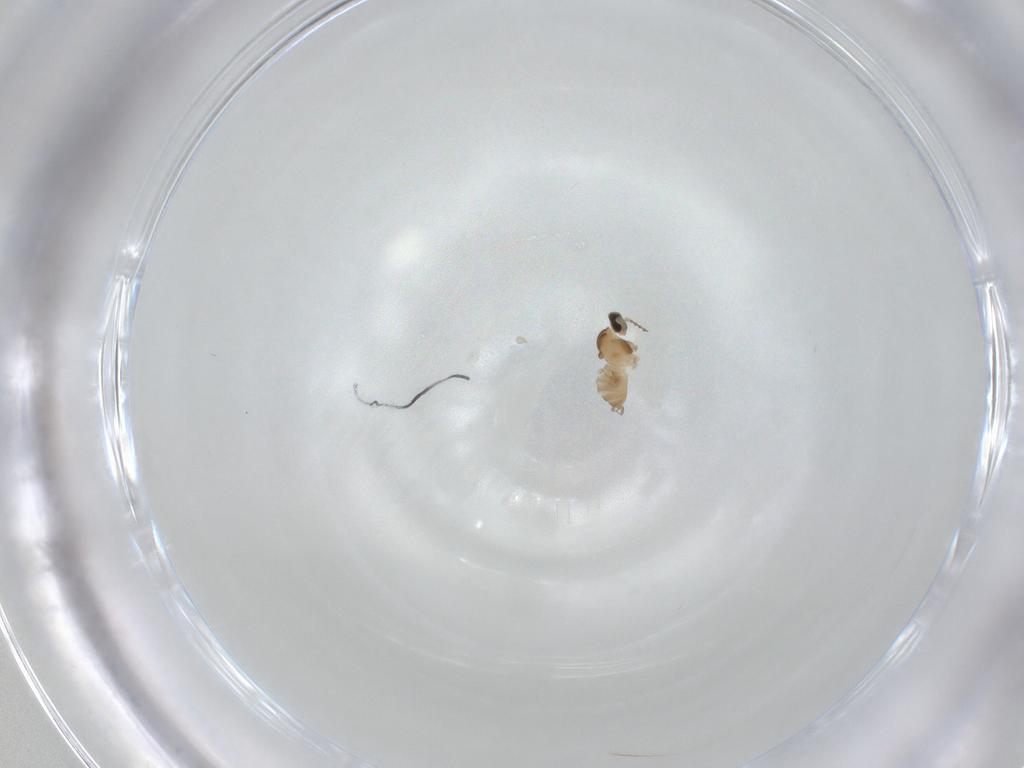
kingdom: Animalia
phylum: Arthropoda
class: Insecta
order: Diptera
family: Cecidomyiidae
